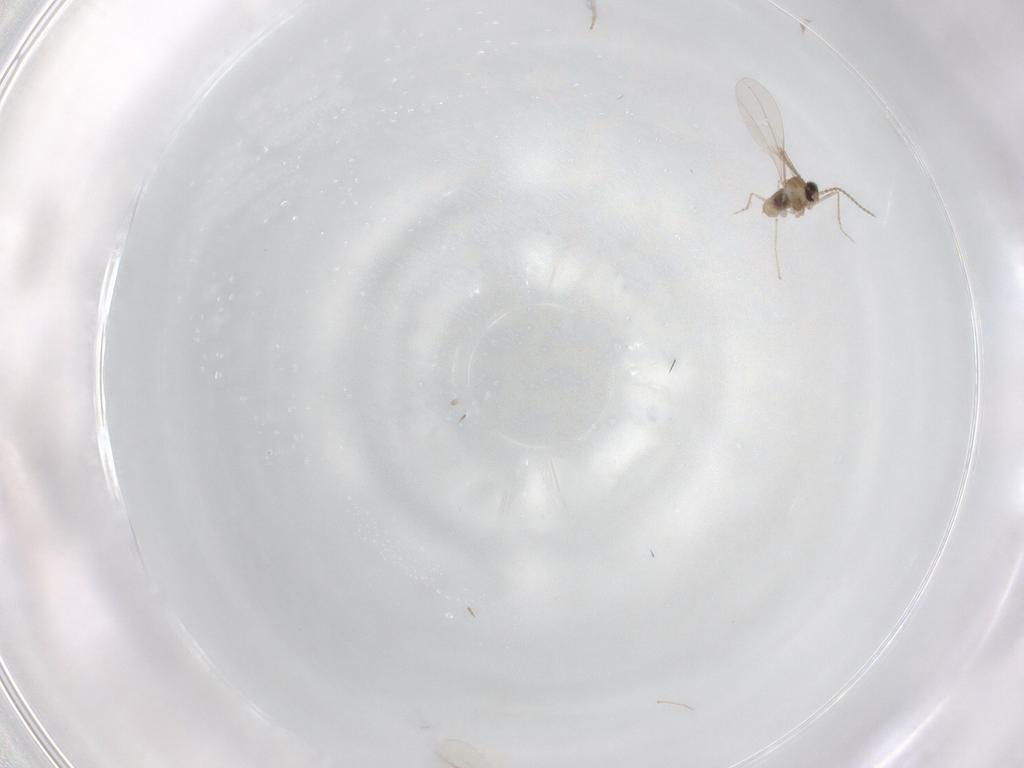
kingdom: Animalia
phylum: Arthropoda
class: Insecta
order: Diptera
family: Cecidomyiidae
